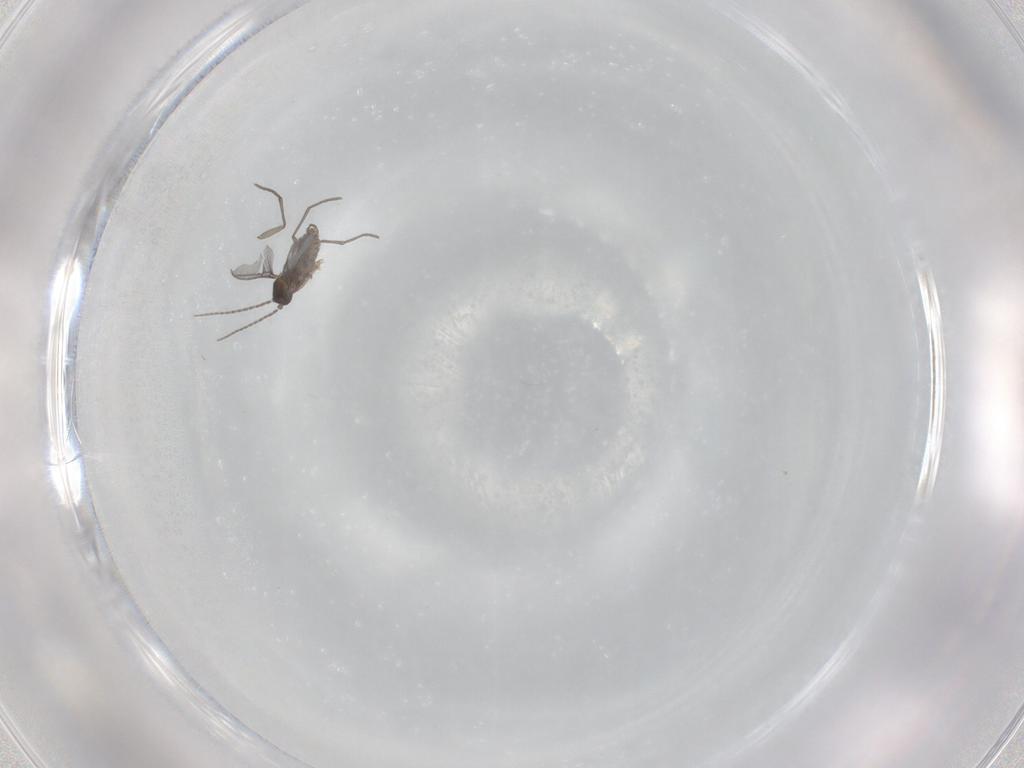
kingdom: Animalia
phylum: Arthropoda
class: Insecta
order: Diptera
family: Sciaridae
